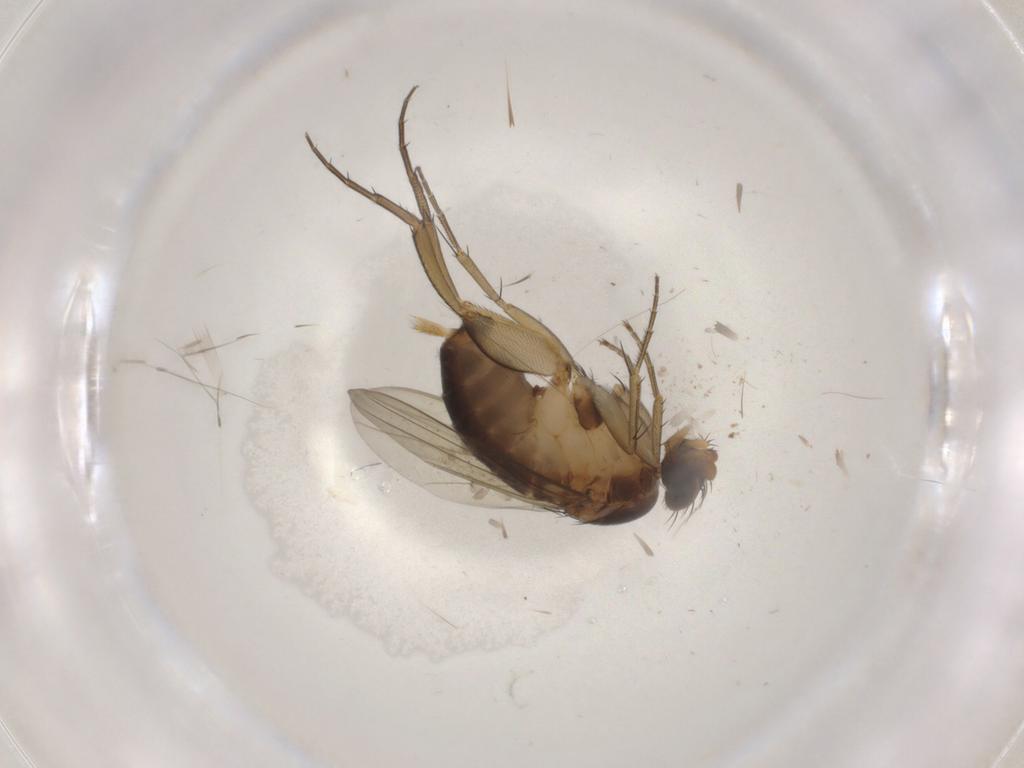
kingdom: Animalia
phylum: Arthropoda
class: Insecta
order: Diptera
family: Phoridae
